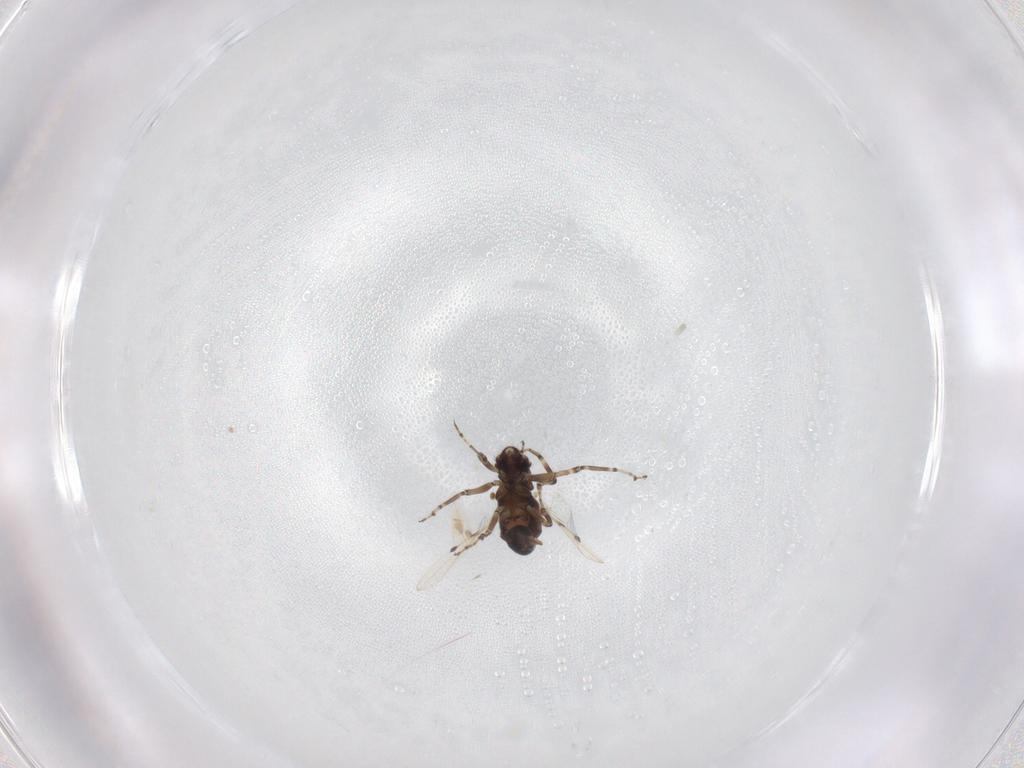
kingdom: Animalia
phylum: Arthropoda
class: Insecta
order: Diptera
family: Ceratopogonidae
